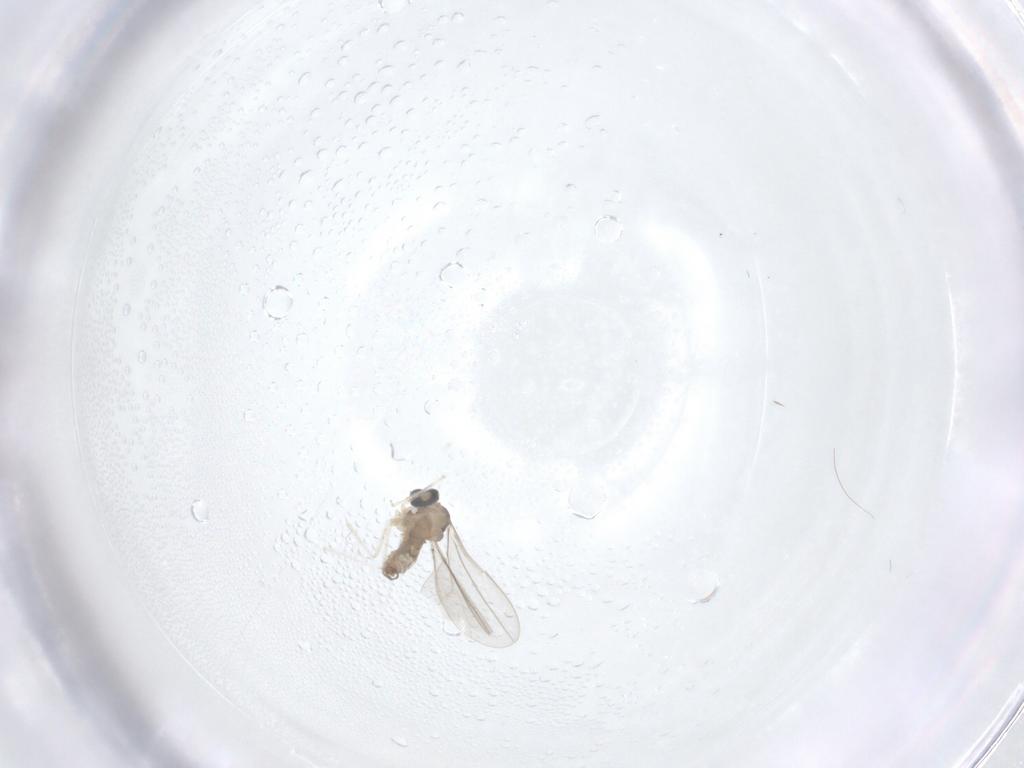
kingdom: Animalia
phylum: Arthropoda
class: Insecta
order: Diptera
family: Cecidomyiidae
